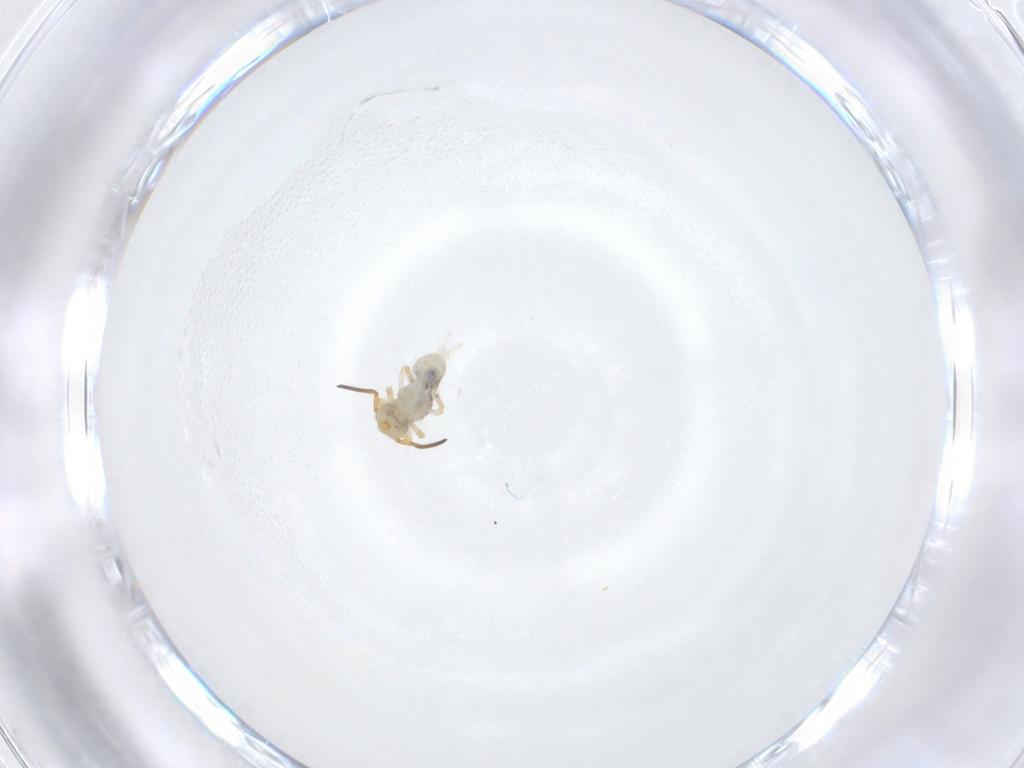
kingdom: Animalia
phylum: Arthropoda
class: Collembola
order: Symphypleona
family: Katiannidae
